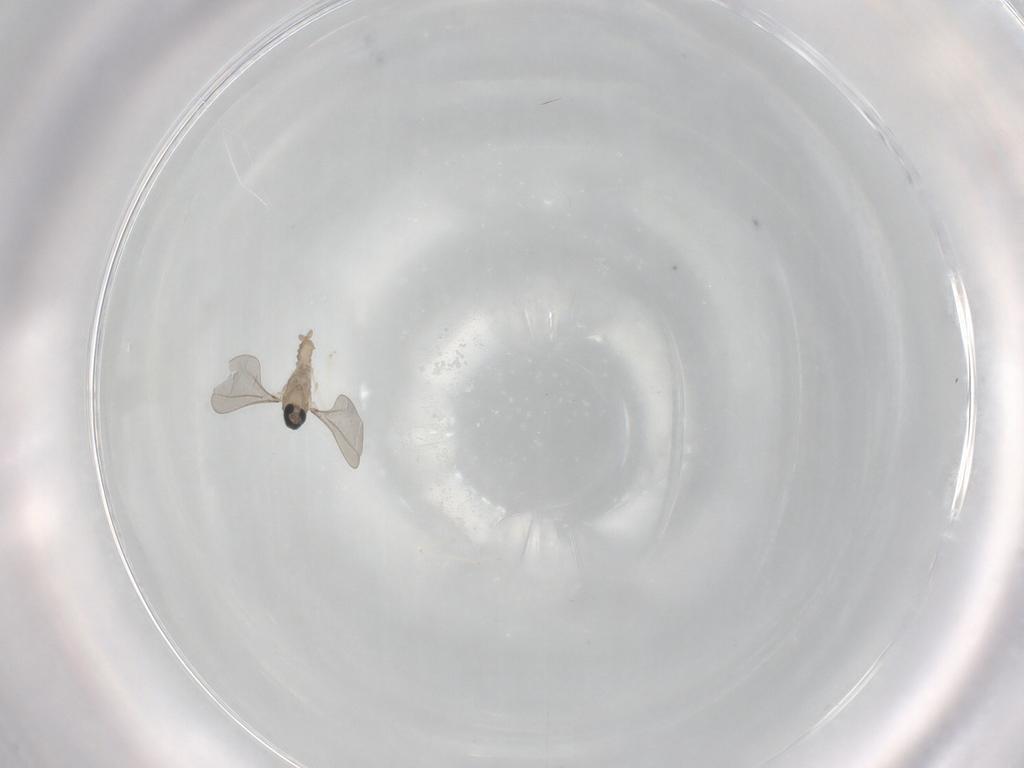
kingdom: Animalia
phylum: Arthropoda
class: Insecta
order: Diptera
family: Cecidomyiidae
